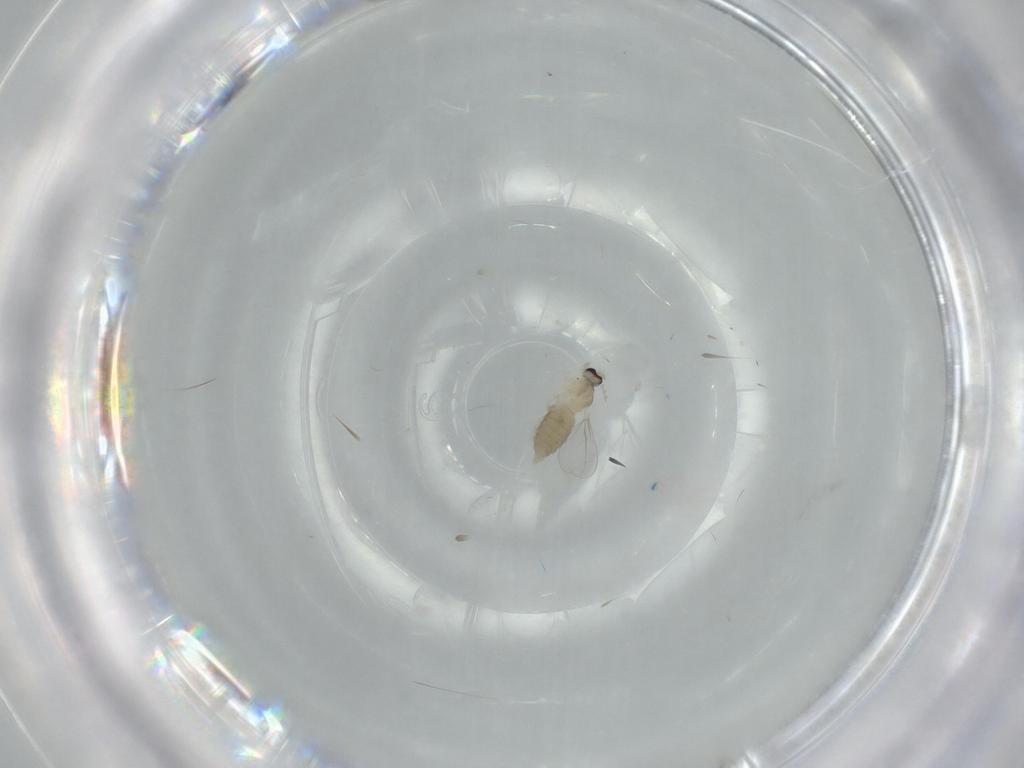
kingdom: Animalia
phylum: Arthropoda
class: Insecta
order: Diptera
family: Cecidomyiidae
